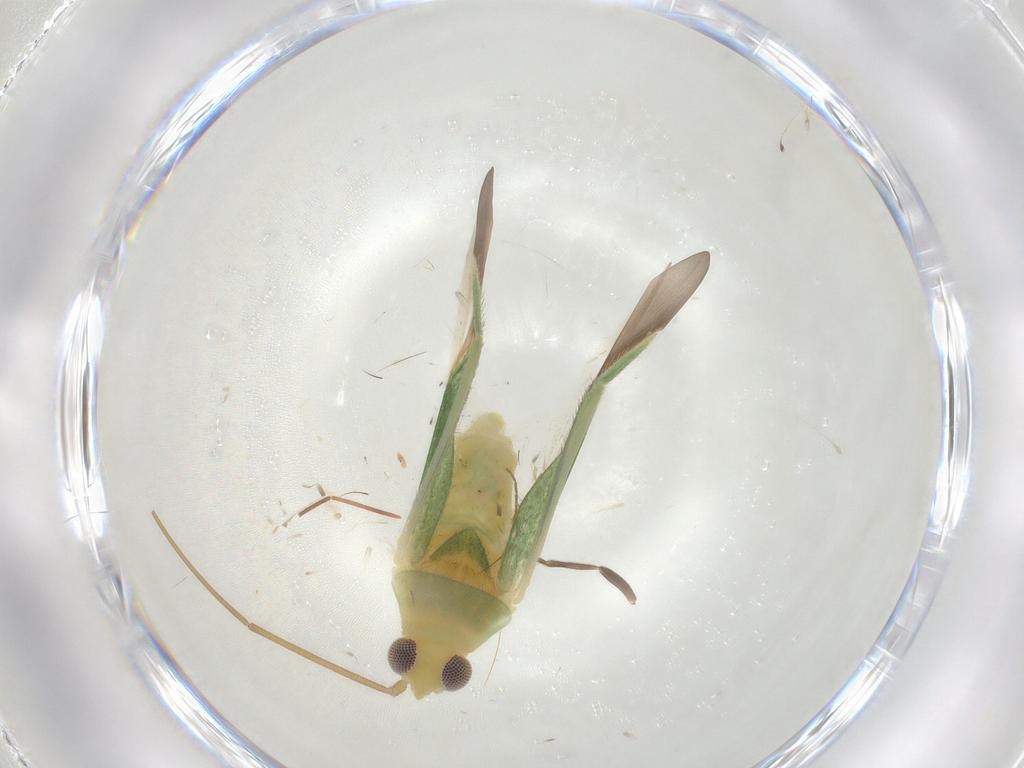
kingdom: Animalia
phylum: Arthropoda
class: Insecta
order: Hemiptera
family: Miridae
